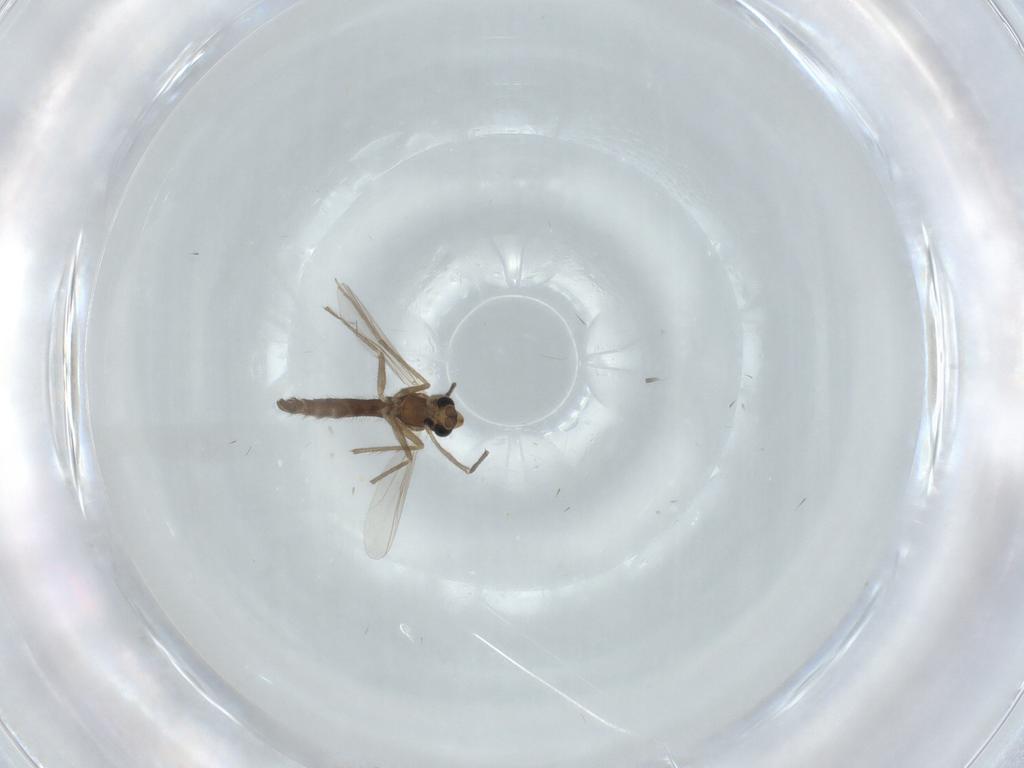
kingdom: Animalia
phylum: Arthropoda
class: Insecta
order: Diptera
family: Chironomidae
